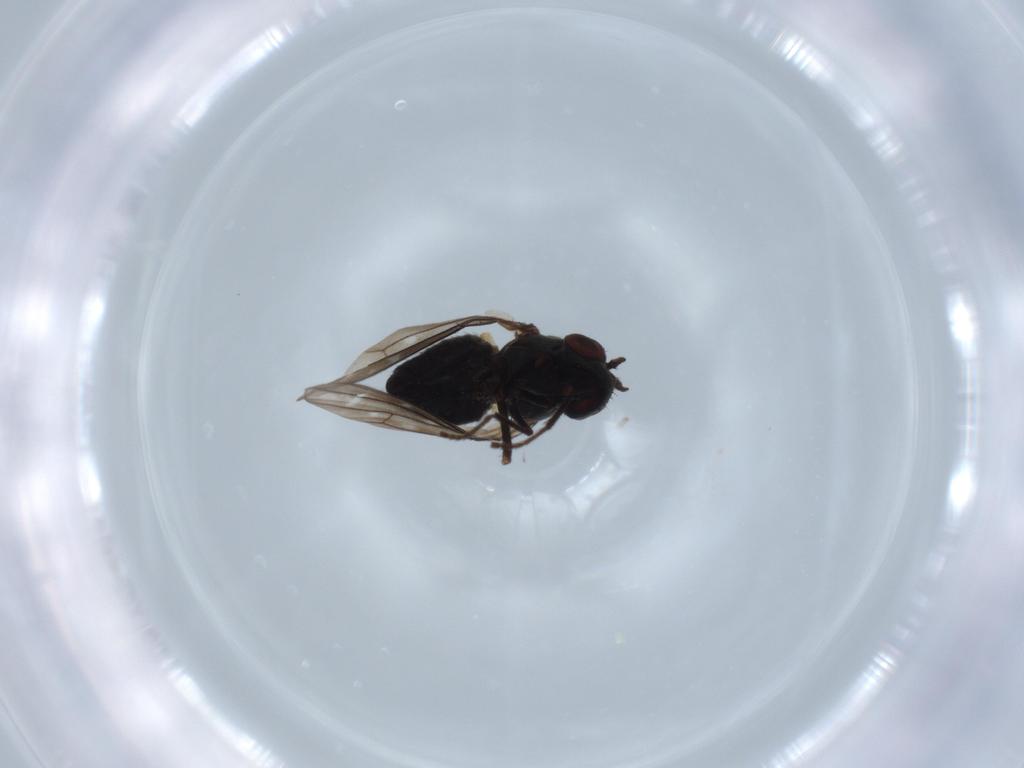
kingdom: Animalia
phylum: Arthropoda
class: Insecta
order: Diptera
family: Ephydridae
